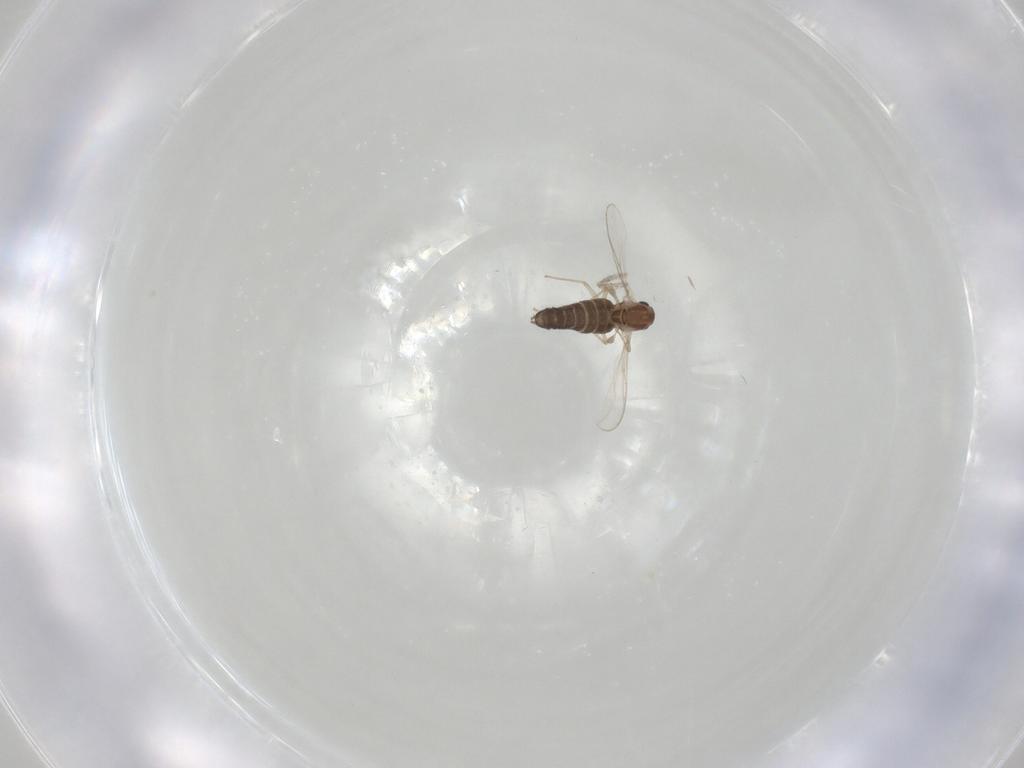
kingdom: Animalia
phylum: Arthropoda
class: Insecta
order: Diptera
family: Chironomidae
